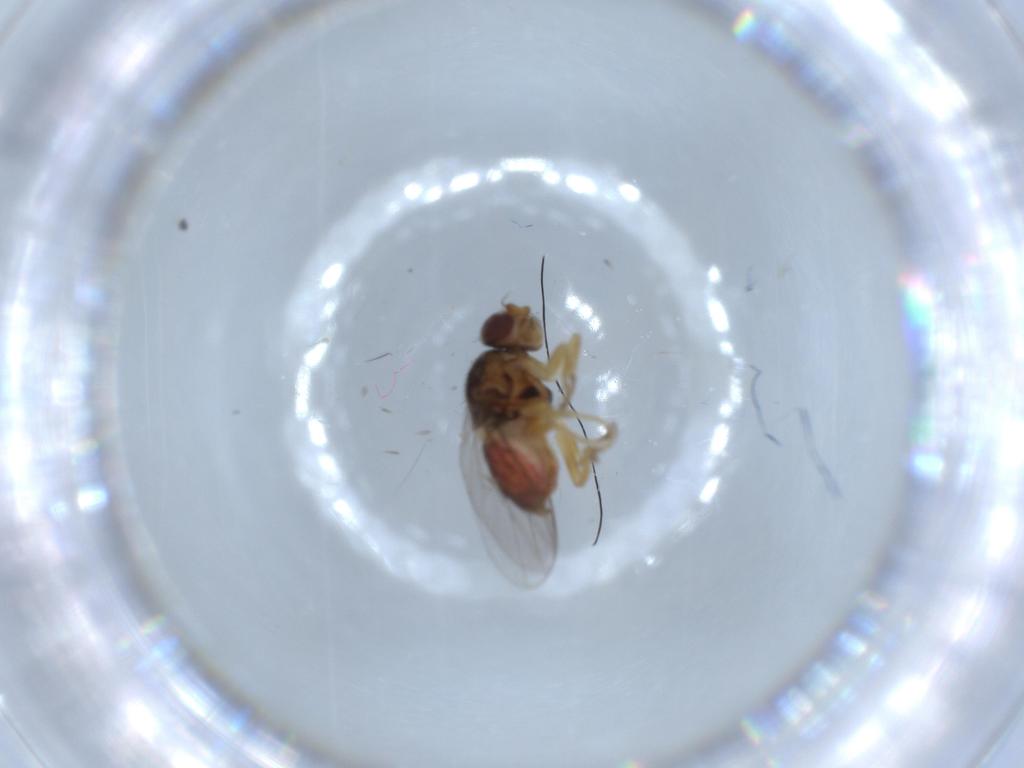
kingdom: Animalia
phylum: Arthropoda
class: Insecta
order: Diptera
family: Chloropidae
